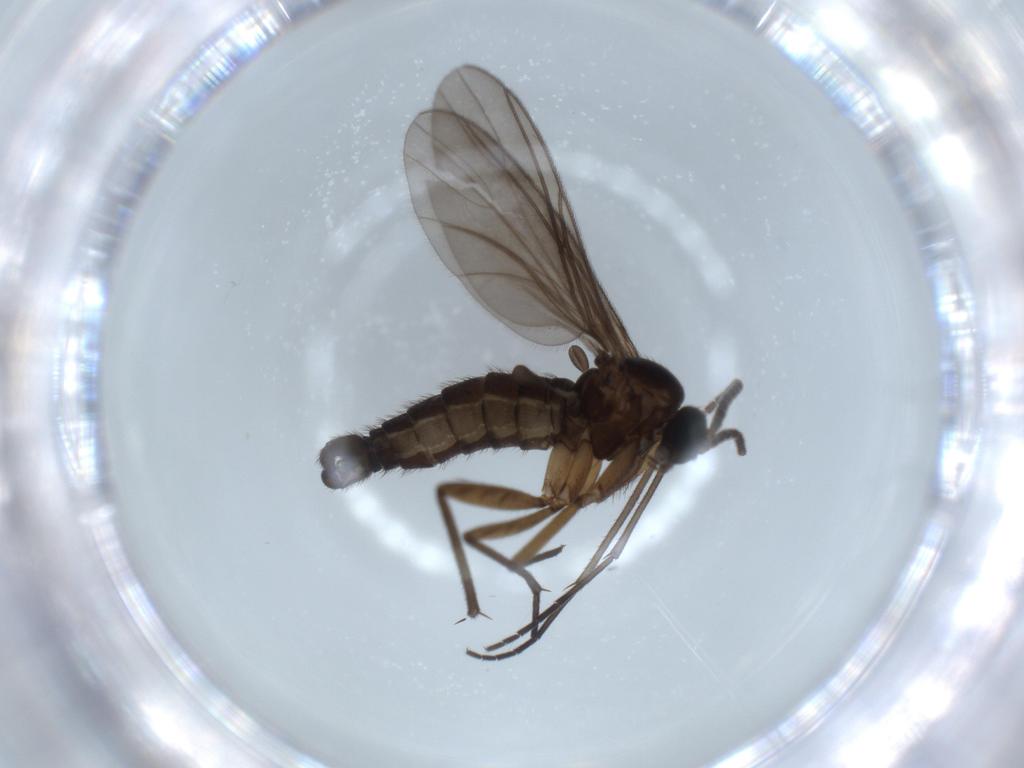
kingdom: Animalia
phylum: Arthropoda
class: Insecta
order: Diptera
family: Sciaridae
